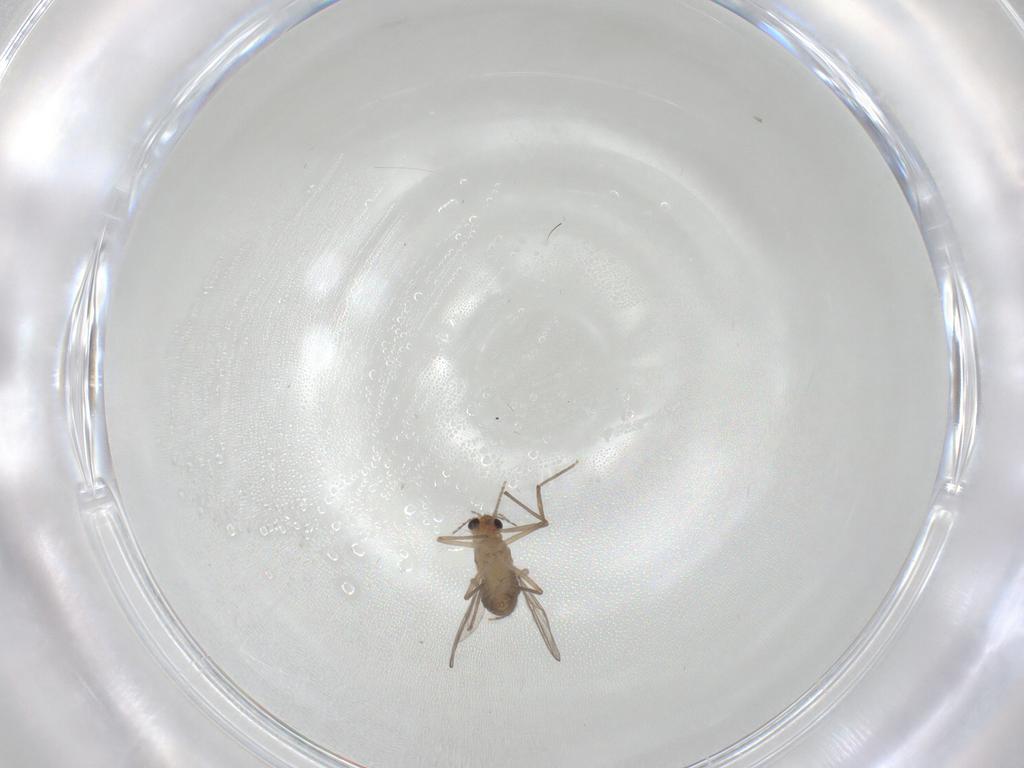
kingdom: Animalia
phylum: Arthropoda
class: Insecta
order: Diptera
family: Chironomidae
